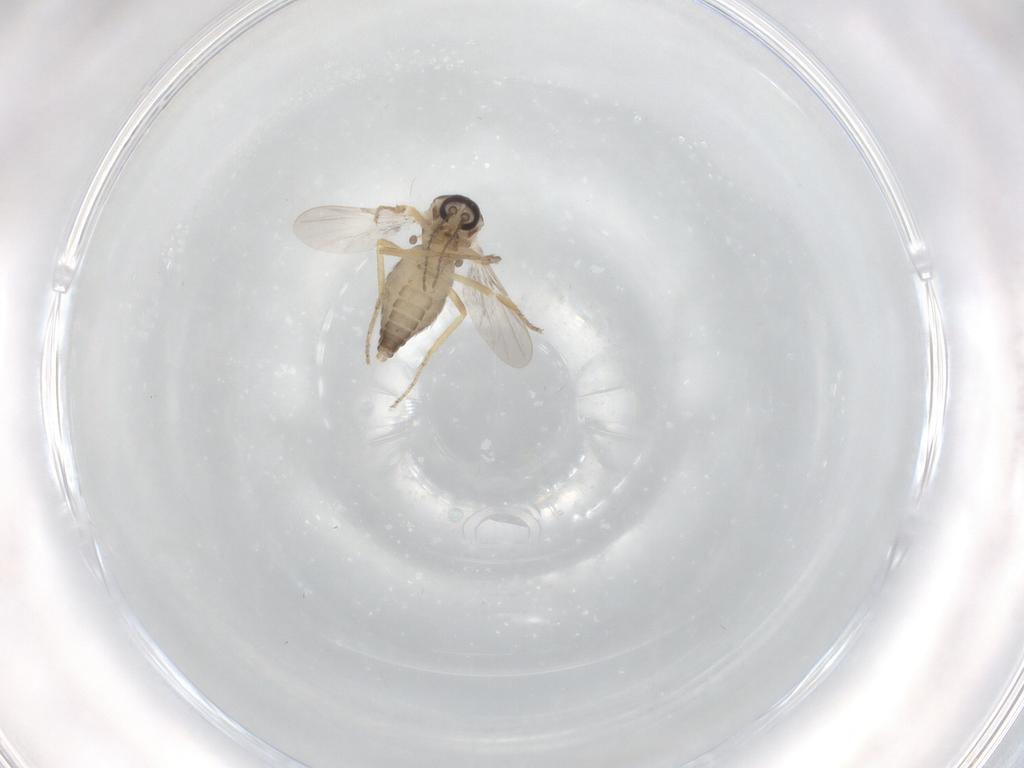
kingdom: Animalia
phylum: Arthropoda
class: Insecta
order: Diptera
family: Ceratopogonidae
